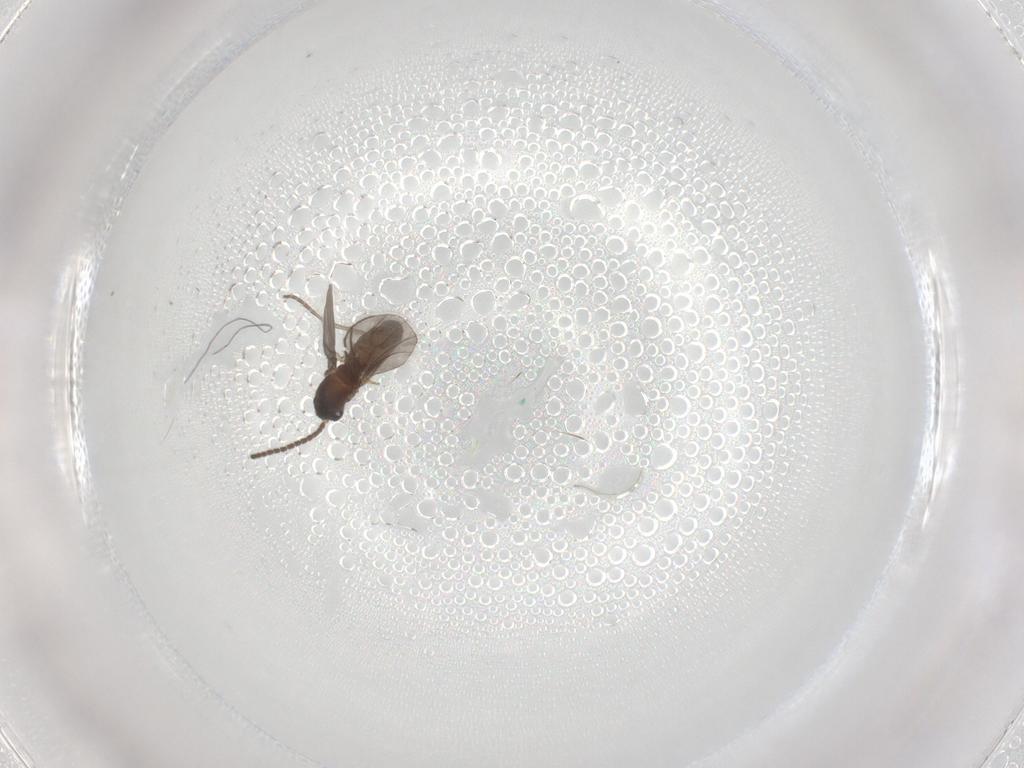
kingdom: Animalia
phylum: Arthropoda
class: Insecta
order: Diptera
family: Sciaridae
